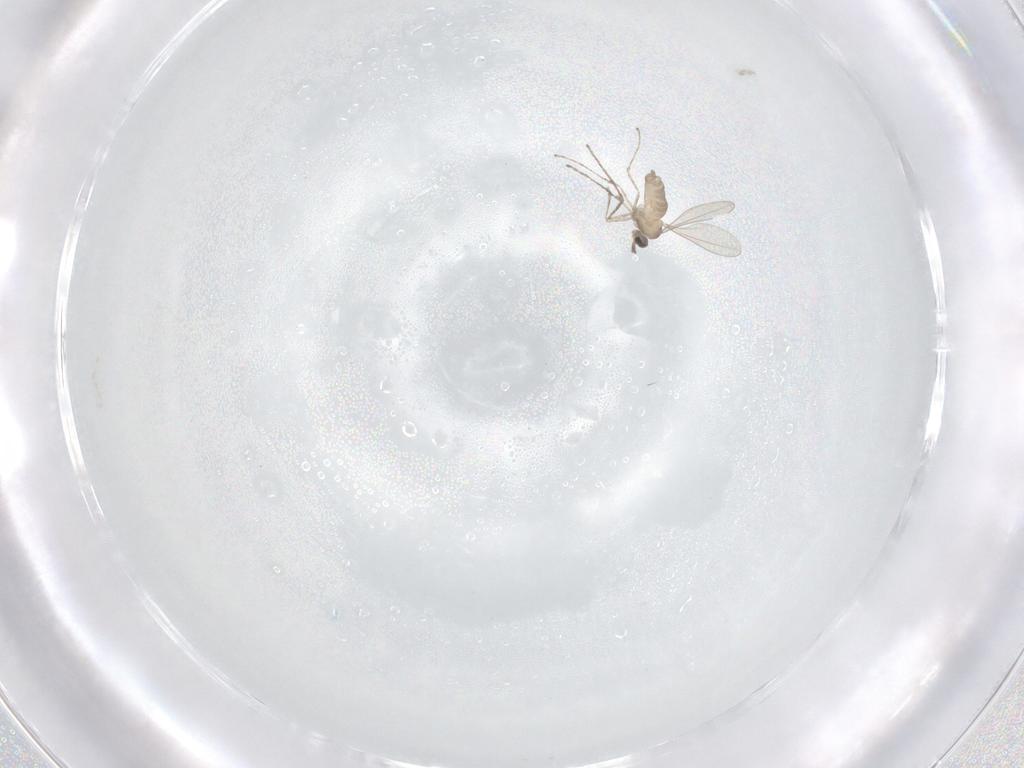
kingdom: Animalia
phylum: Arthropoda
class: Insecta
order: Diptera
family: Cecidomyiidae
